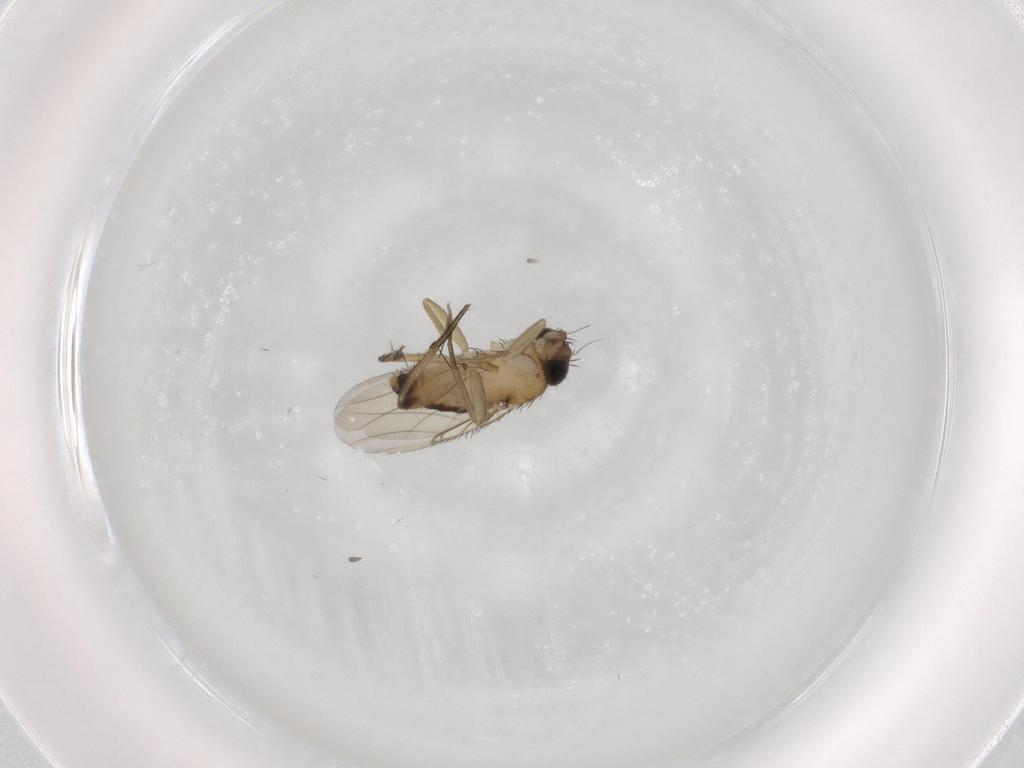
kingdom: Animalia
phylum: Arthropoda
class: Insecta
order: Diptera
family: Phoridae
